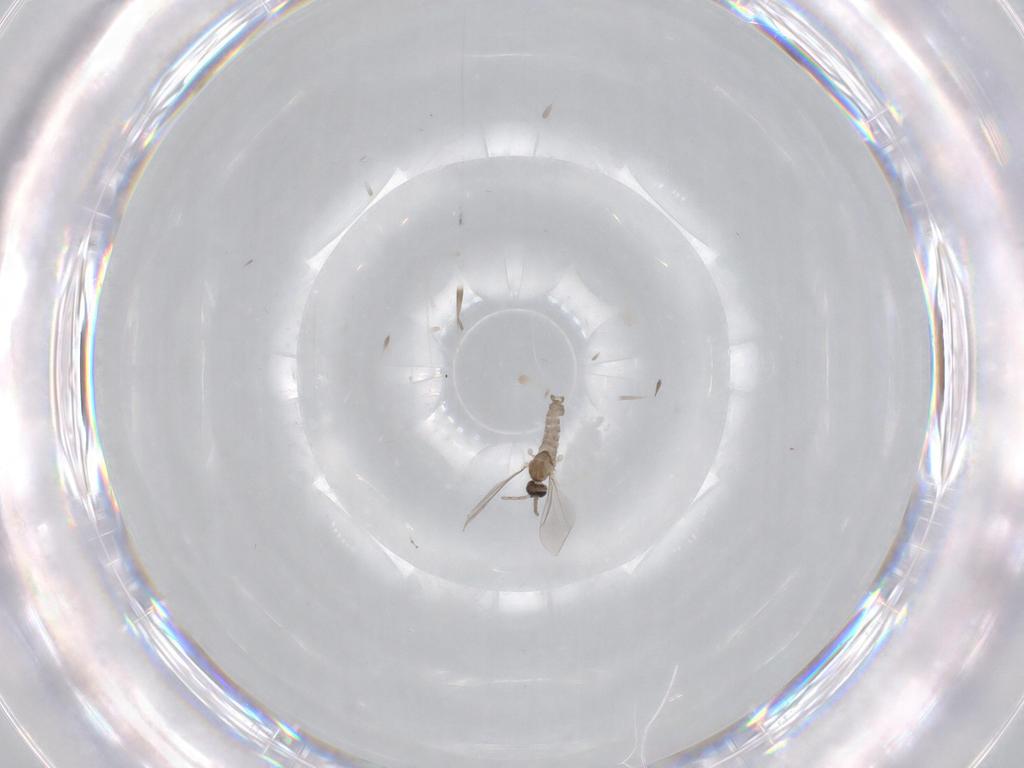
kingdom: Animalia
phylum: Arthropoda
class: Insecta
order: Diptera
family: Cecidomyiidae
